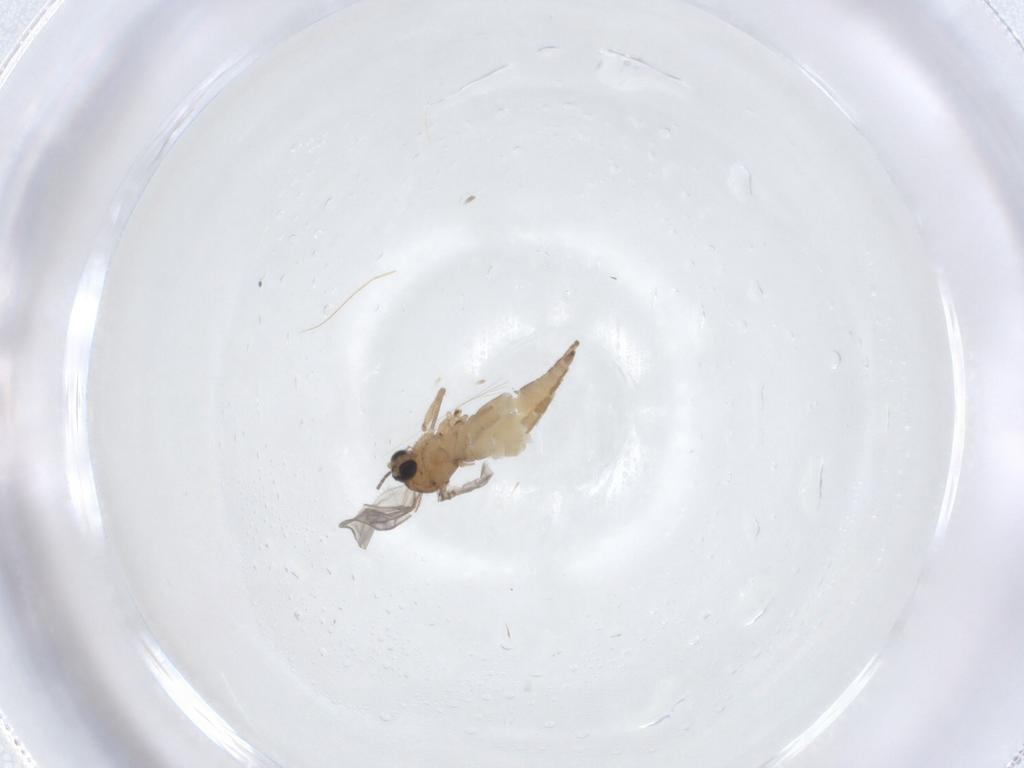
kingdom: Animalia
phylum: Arthropoda
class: Insecta
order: Diptera
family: Sciaridae
